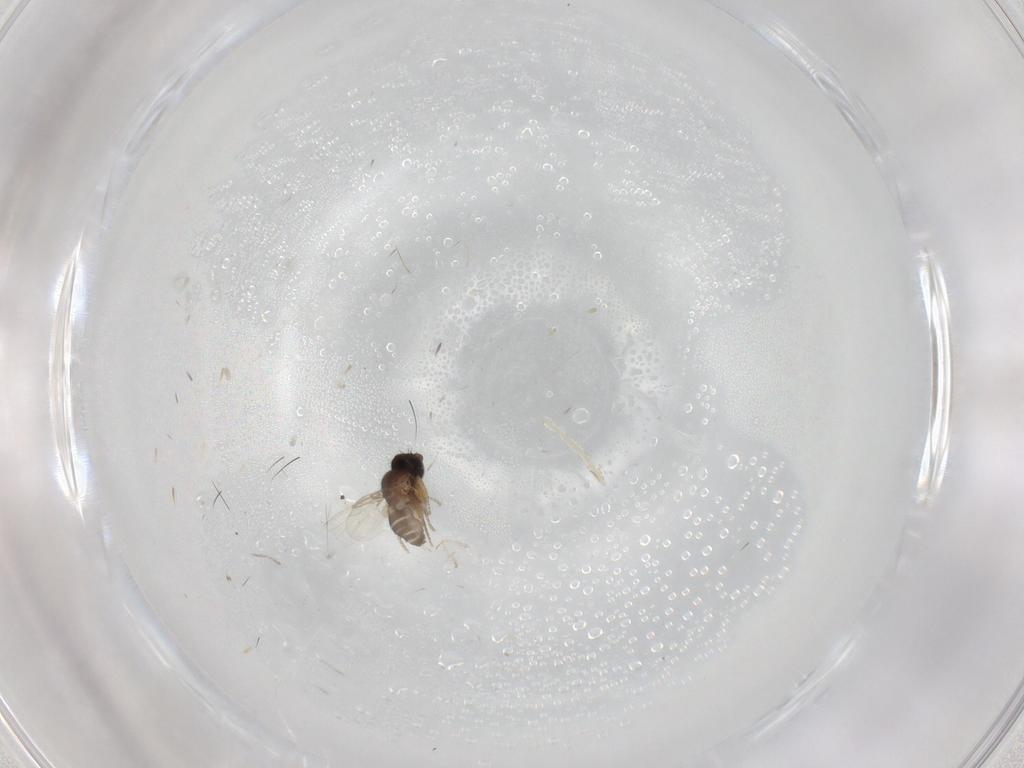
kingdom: Animalia
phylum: Arthropoda
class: Insecta
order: Diptera
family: Phoridae
